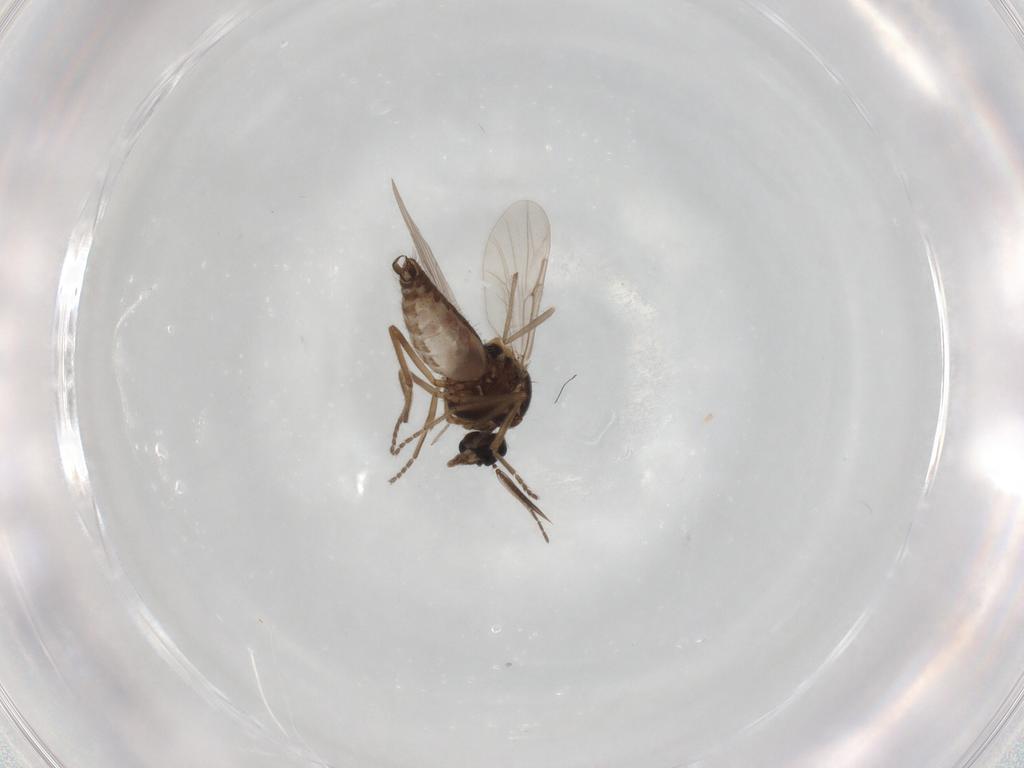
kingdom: Animalia
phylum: Arthropoda
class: Insecta
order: Diptera
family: Ceratopogonidae
